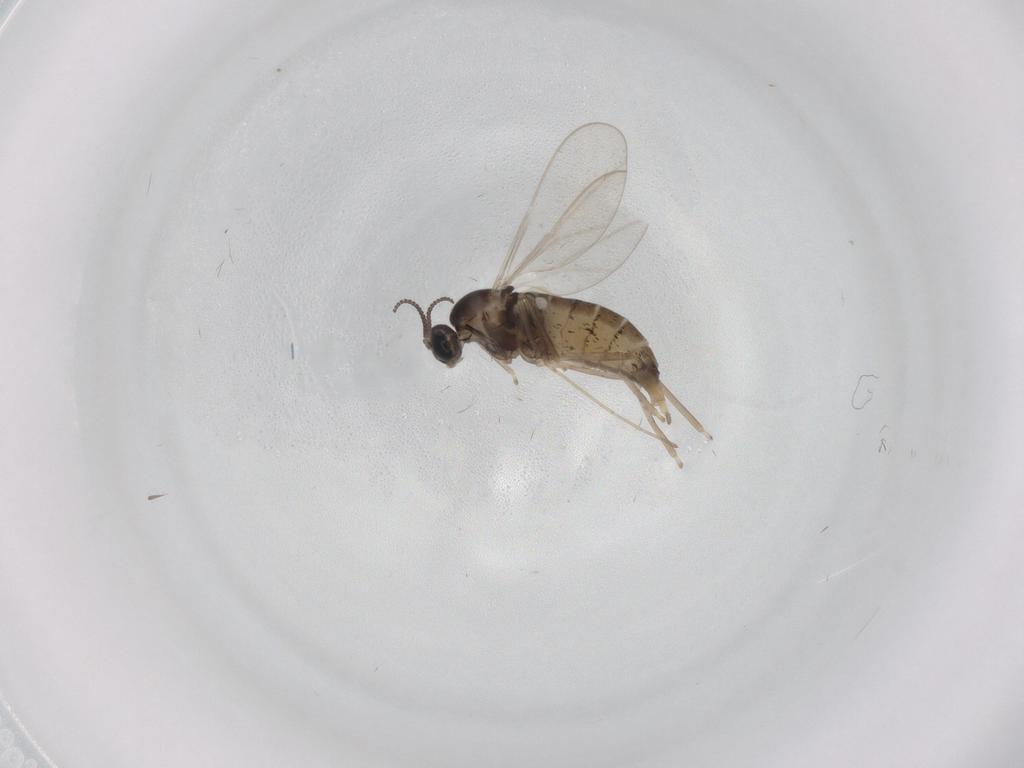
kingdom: Animalia
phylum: Arthropoda
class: Insecta
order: Diptera
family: Cecidomyiidae
